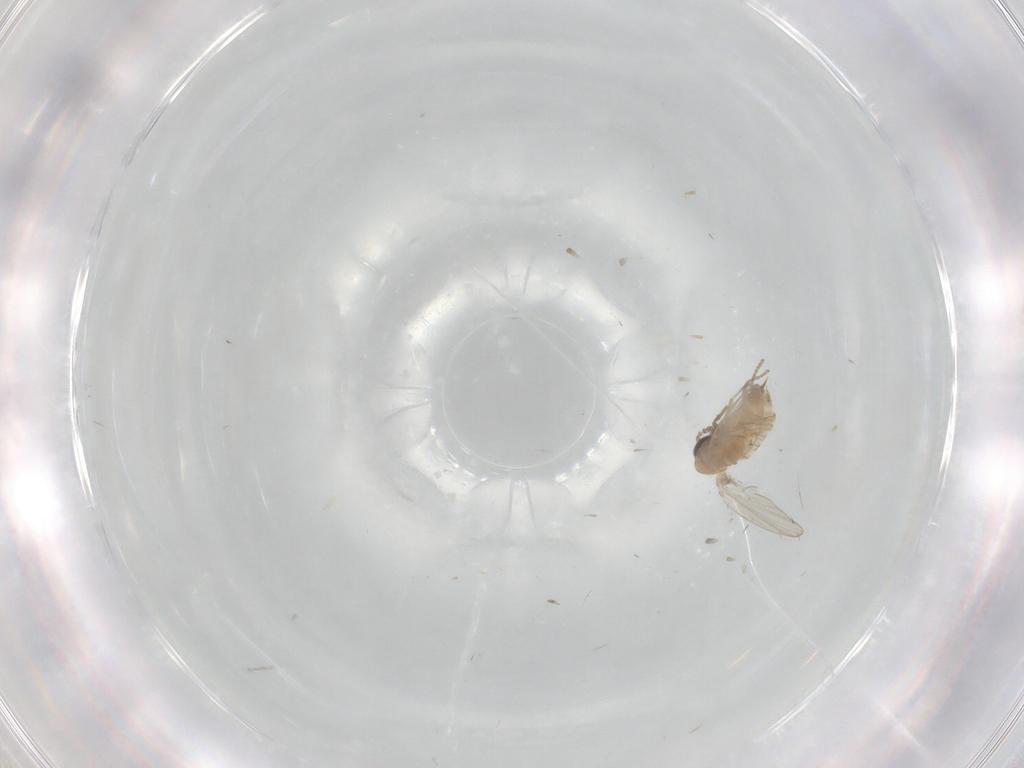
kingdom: Animalia
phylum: Arthropoda
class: Insecta
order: Diptera
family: Psychodidae
